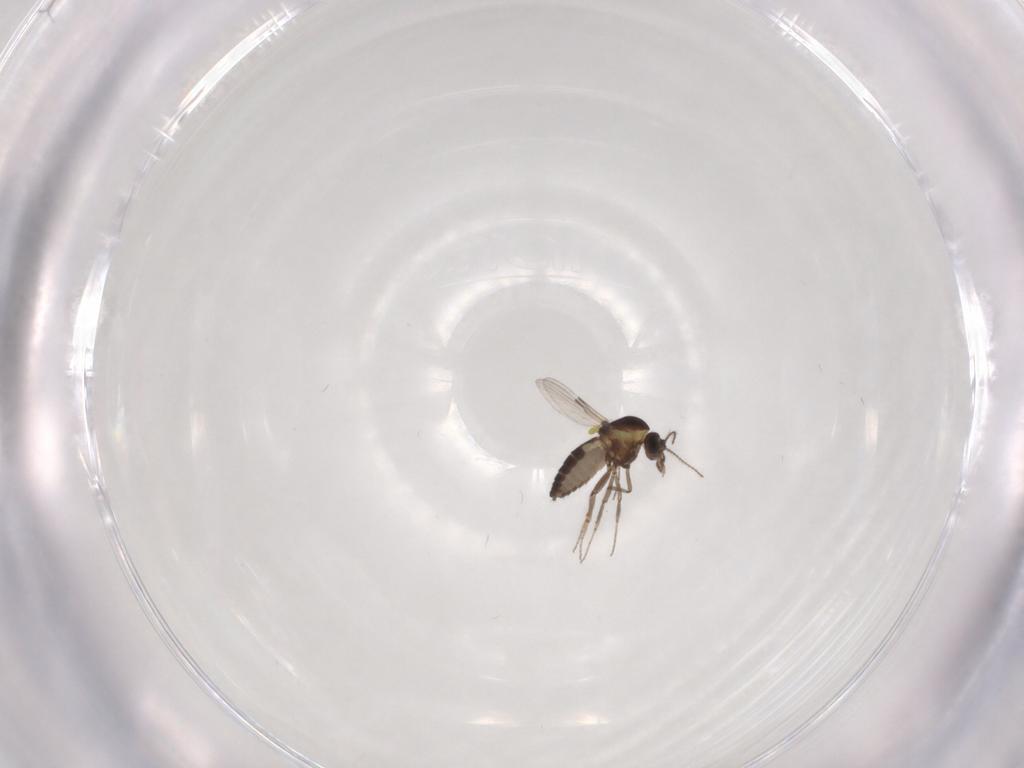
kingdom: Animalia
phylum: Arthropoda
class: Insecta
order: Diptera
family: Ceratopogonidae
